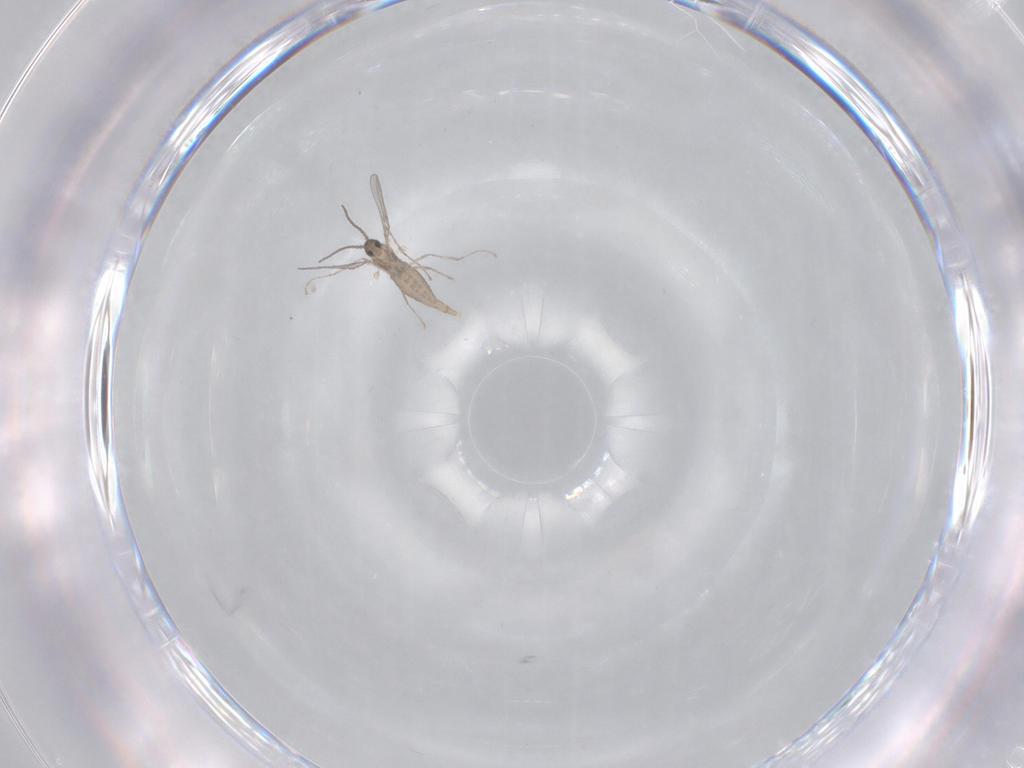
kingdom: Animalia
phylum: Arthropoda
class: Insecta
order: Diptera
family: Cecidomyiidae
